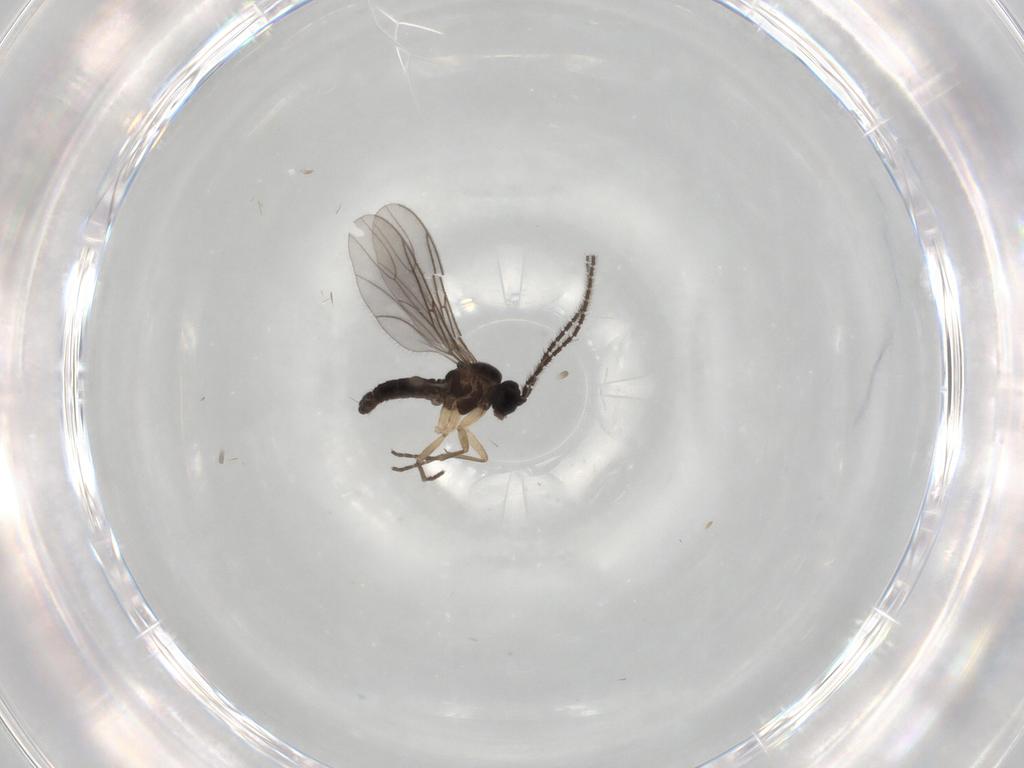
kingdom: Animalia
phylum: Arthropoda
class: Insecta
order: Diptera
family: Sciaridae
